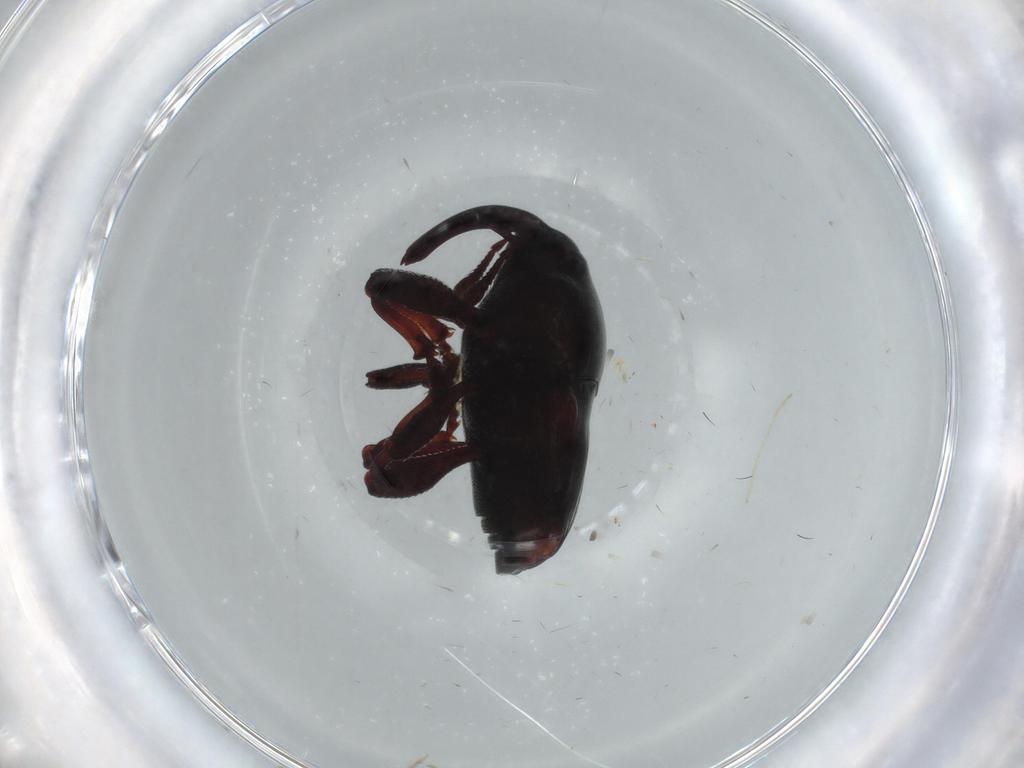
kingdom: Animalia
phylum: Arthropoda
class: Insecta
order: Coleoptera
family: Curculionidae
